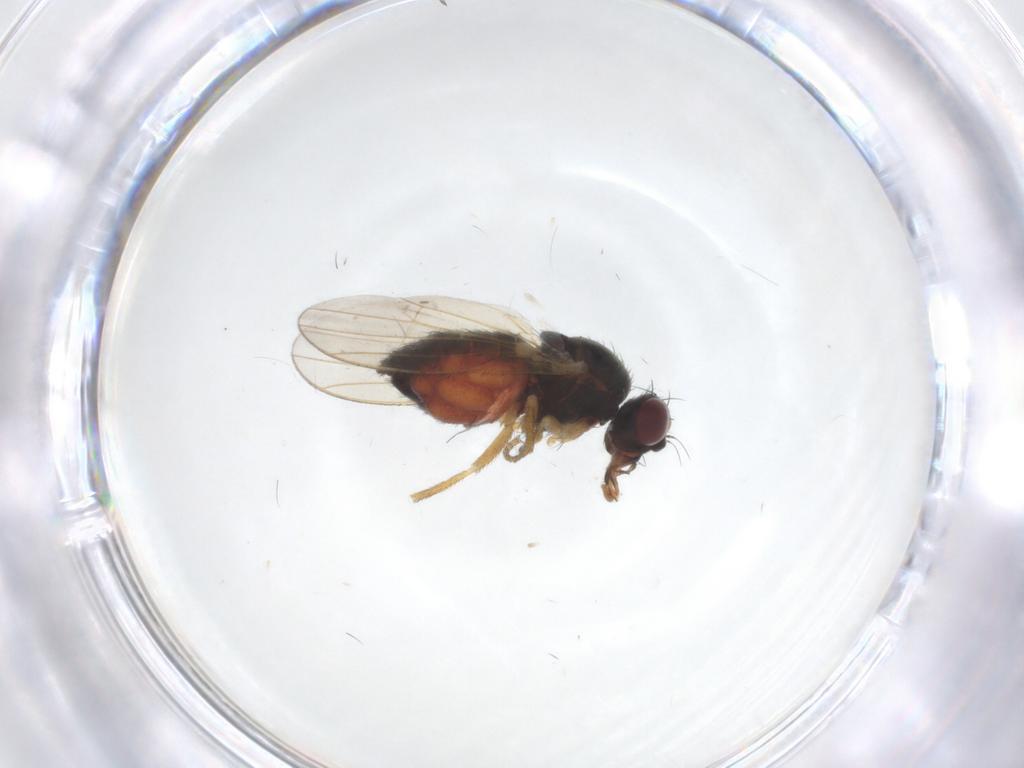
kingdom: Animalia
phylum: Arthropoda
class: Insecta
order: Diptera
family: Heleomyzidae
